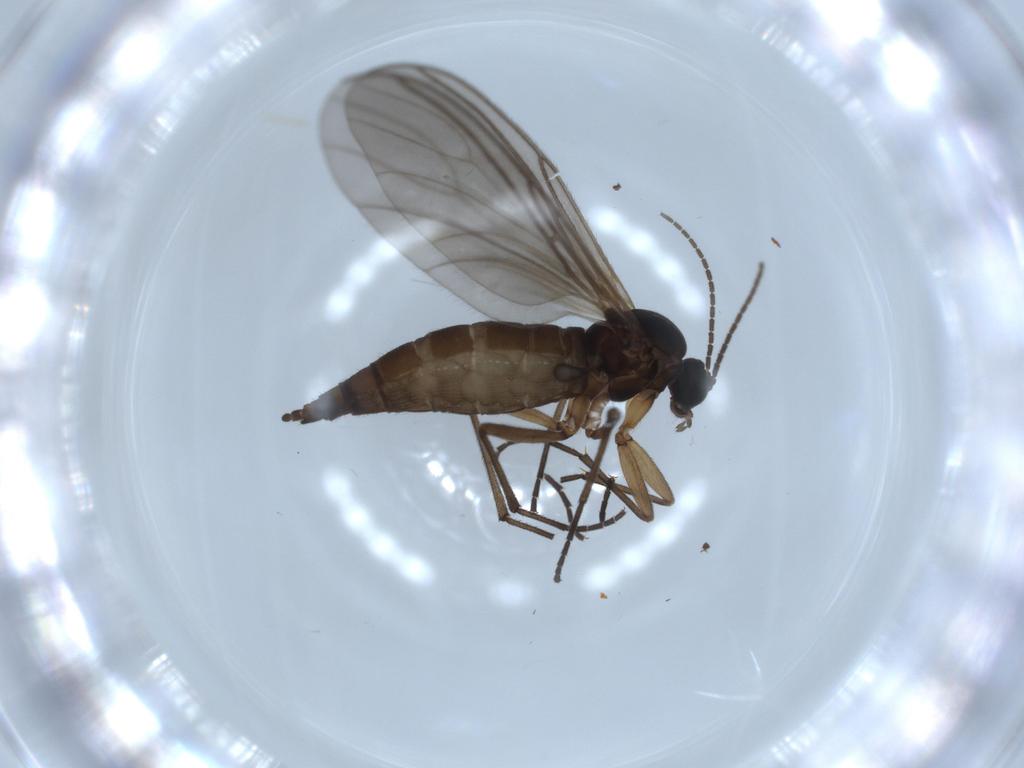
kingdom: Animalia
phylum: Arthropoda
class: Insecta
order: Diptera
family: Sciaridae
